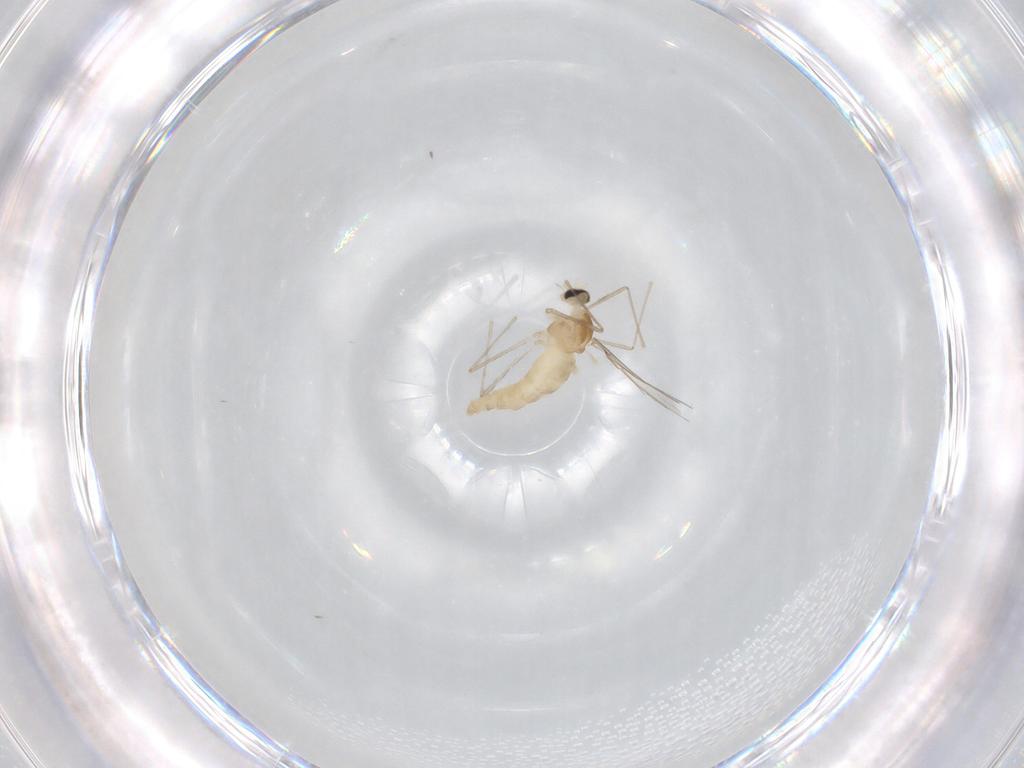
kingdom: Animalia
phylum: Arthropoda
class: Insecta
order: Diptera
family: Cecidomyiidae
